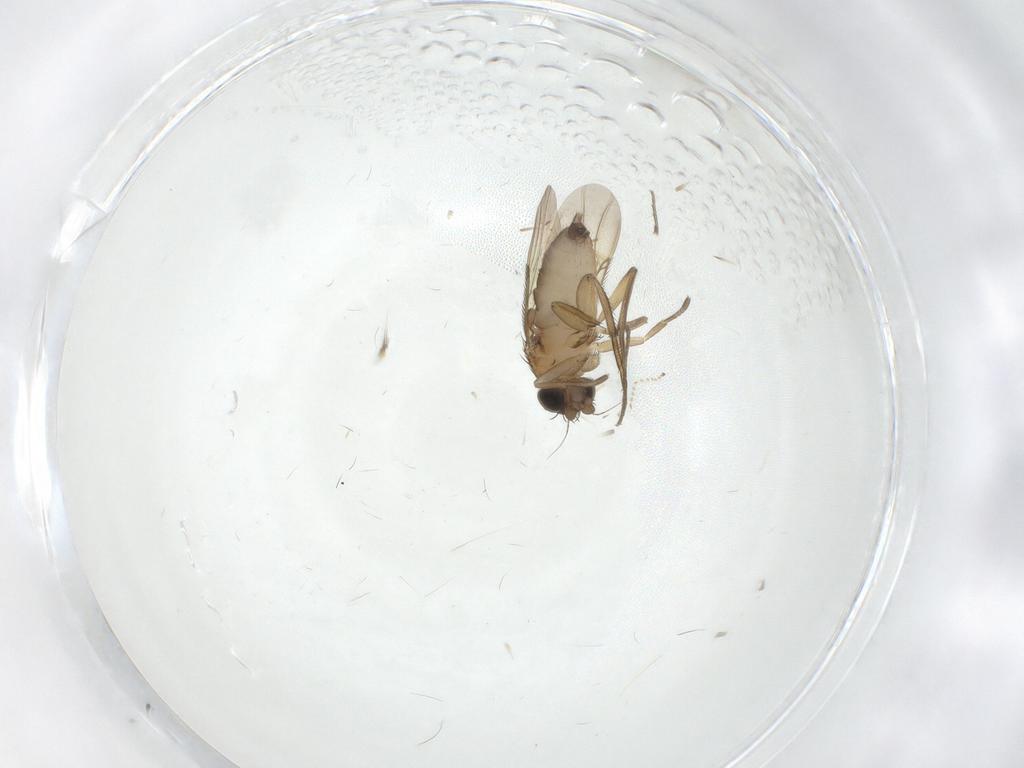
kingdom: Animalia
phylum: Arthropoda
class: Insecta
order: Diptera
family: Phoridae
